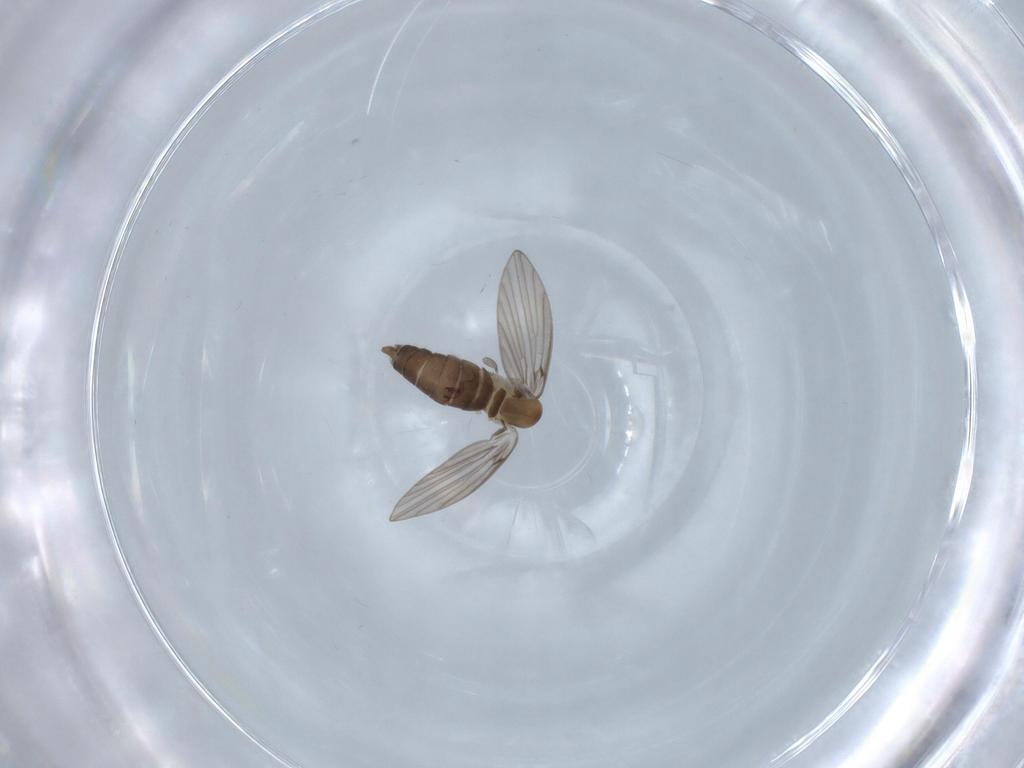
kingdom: Animalia
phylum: Arthropoda
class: Insecta
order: Diptera
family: Psychodidae
